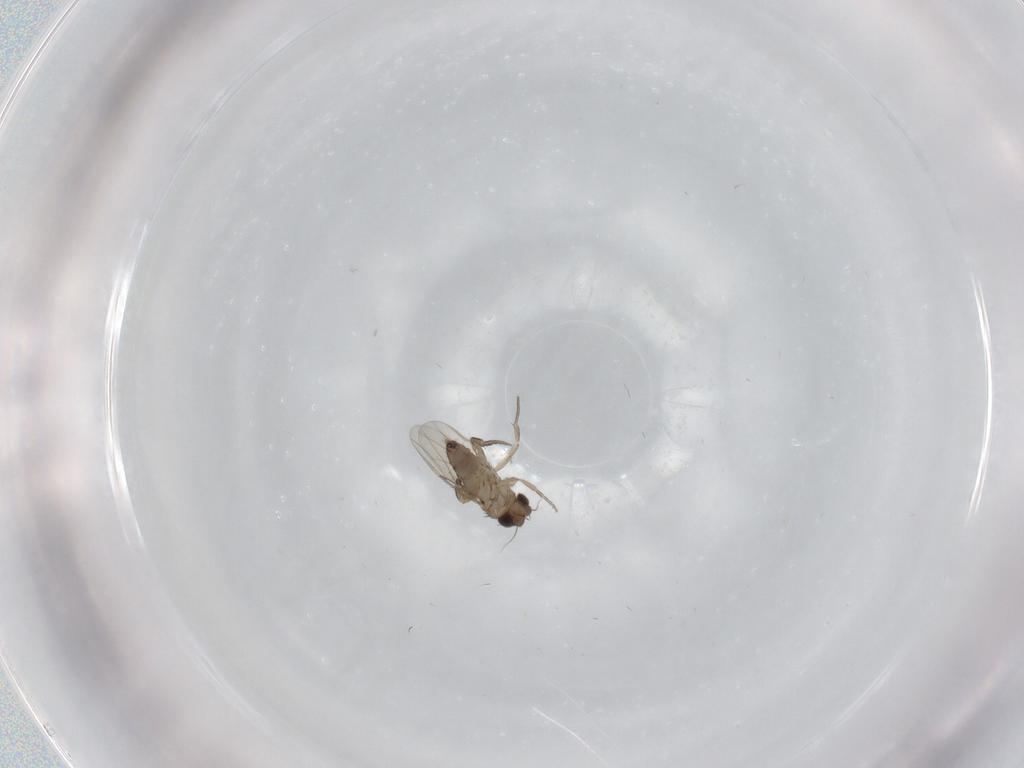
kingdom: Animalia
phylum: Arthropoda
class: Insecta
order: Diptera
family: Phoridae
